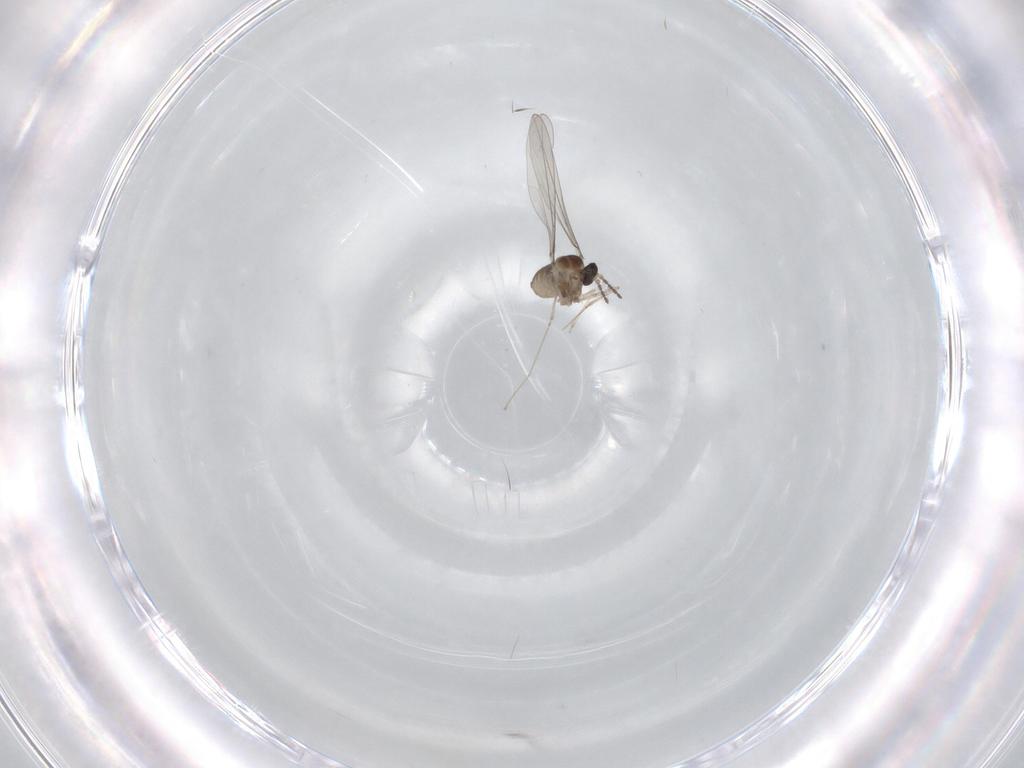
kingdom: Animalia
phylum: Arthropoda
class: Insecta
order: Diptera
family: Cecidomyiidae
